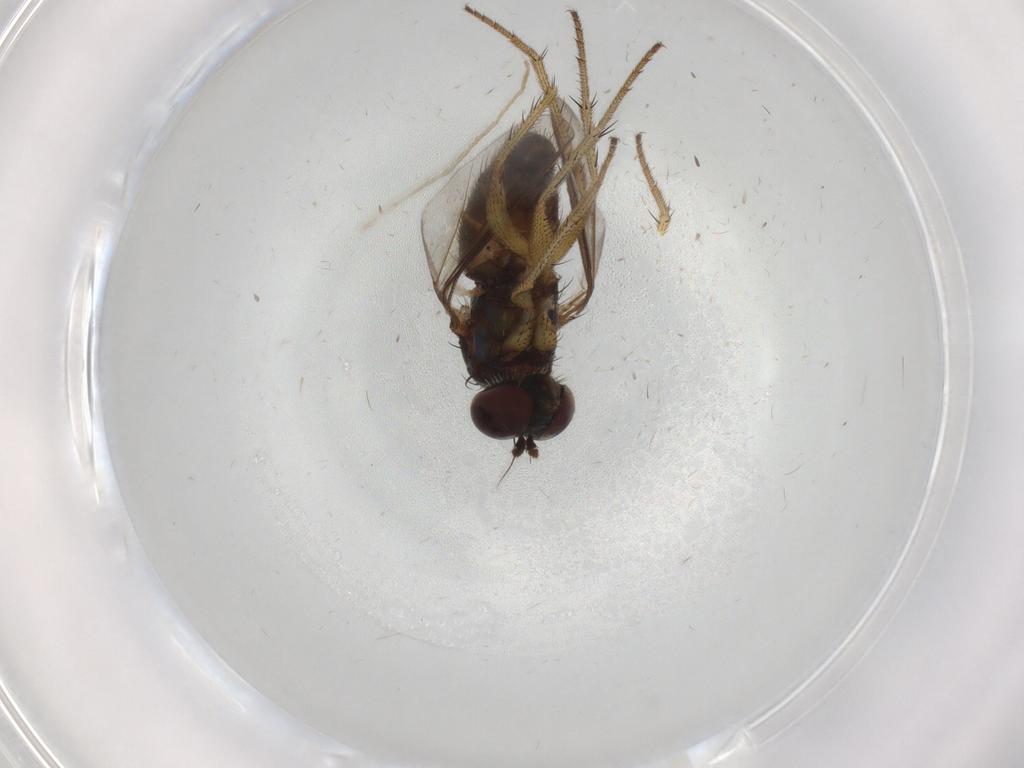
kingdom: Animalia
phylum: Arthropoda
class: Insecta
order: Diptera
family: Dolichopodidae
